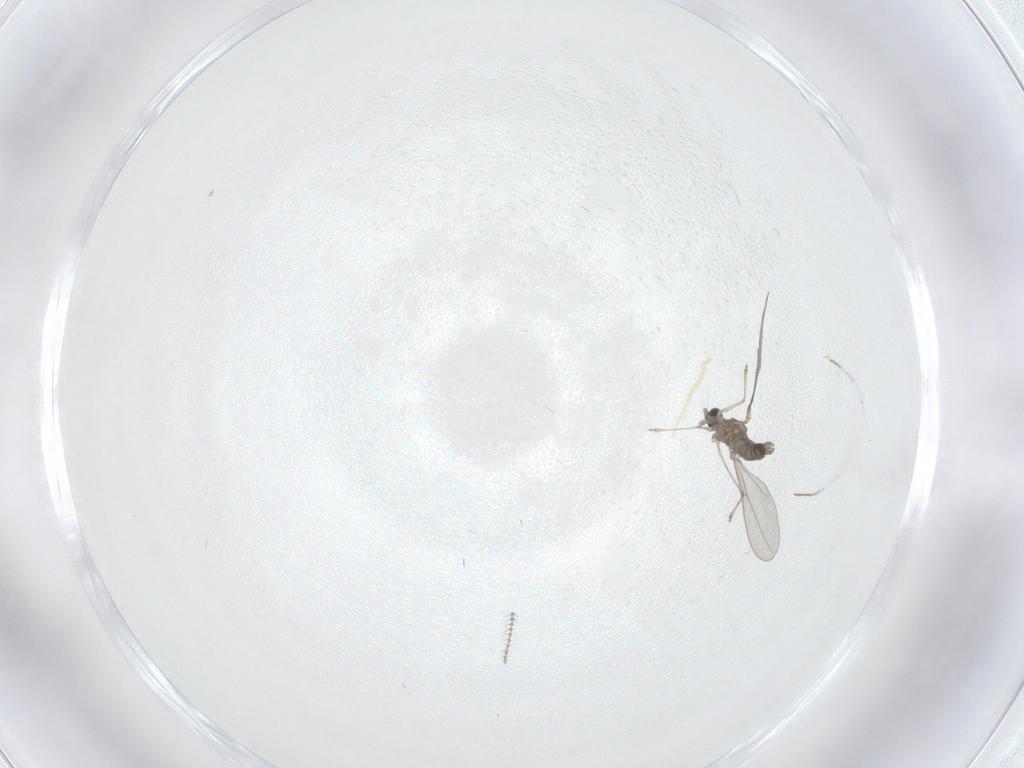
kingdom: Animalia
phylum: Arthropoda
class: Insecta
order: Diptera
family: Cecidomyiidae
